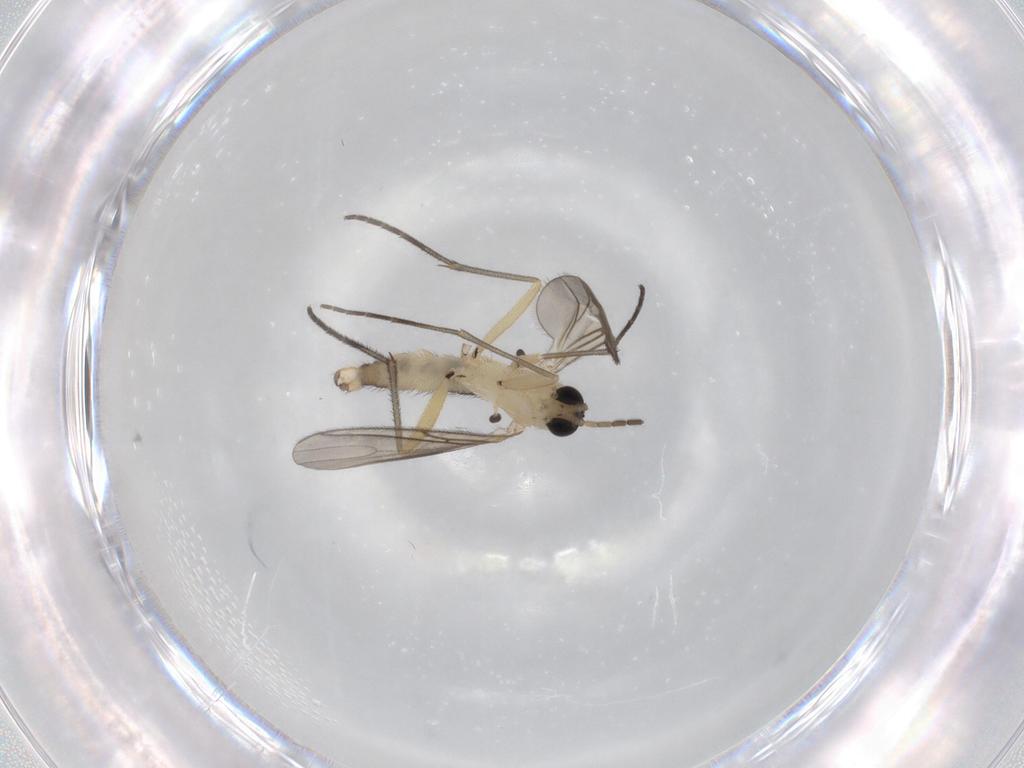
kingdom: Animalia
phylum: Arthropoda
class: Insecta
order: Diptera
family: Sciaridae
